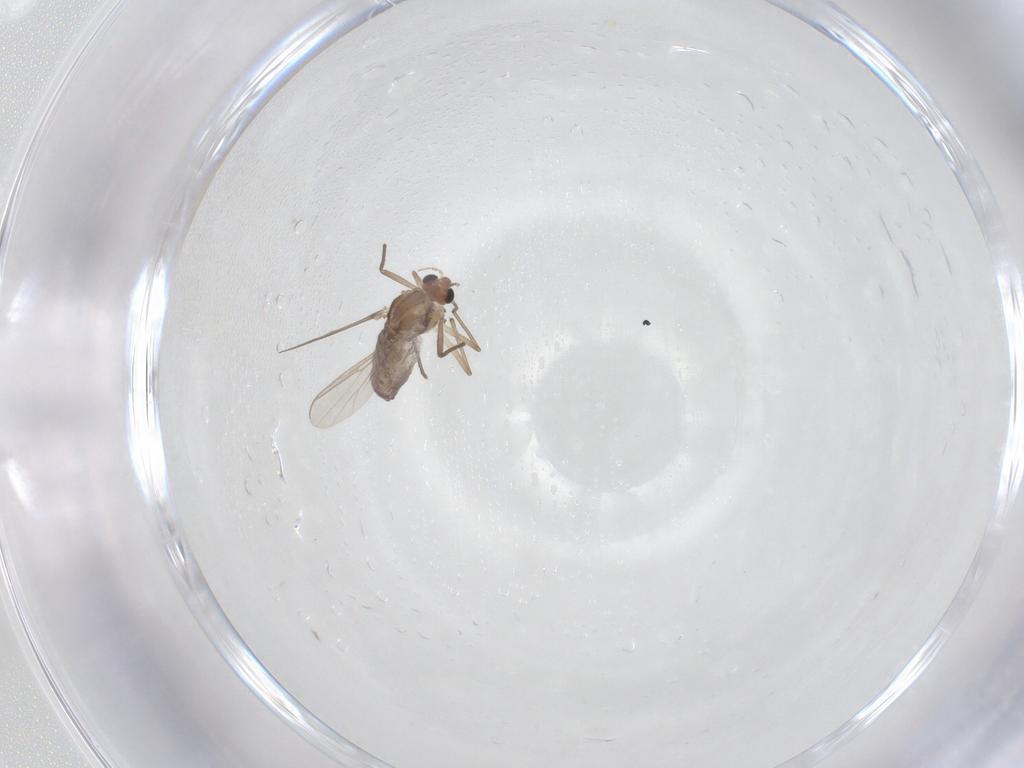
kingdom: Animalia
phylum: Arthropoda
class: Insecta
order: Diptera
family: Chironomidae
